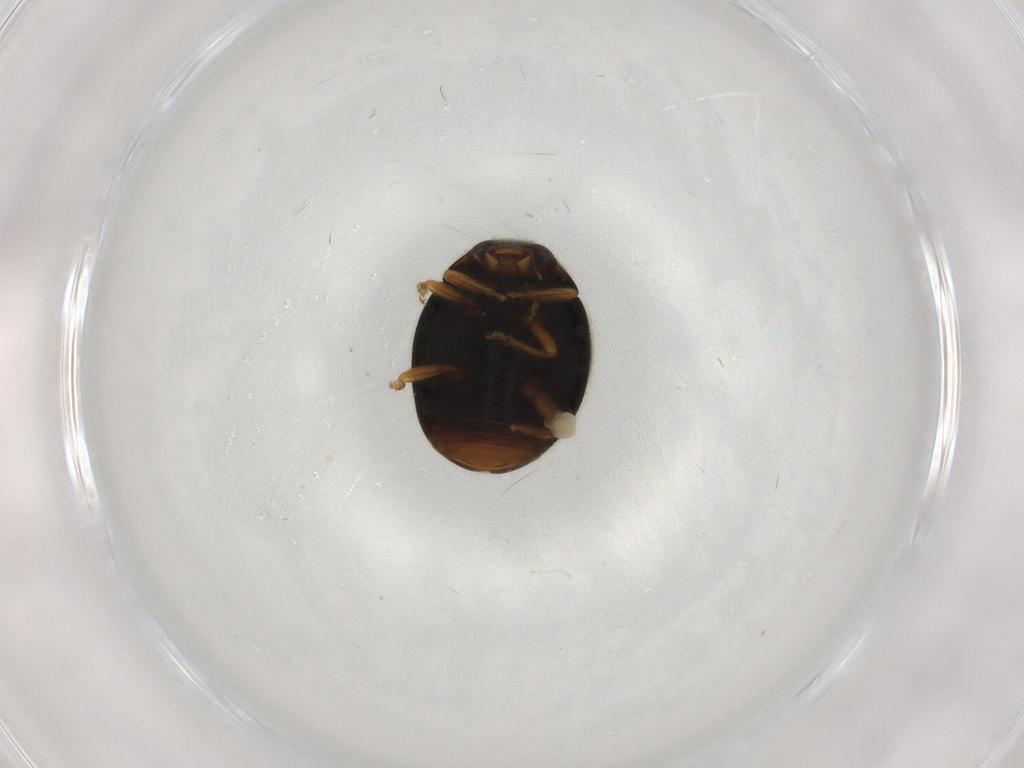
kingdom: Animalia
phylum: Arthropoda
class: Insecta
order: Coleoptera
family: Coccinellidae
